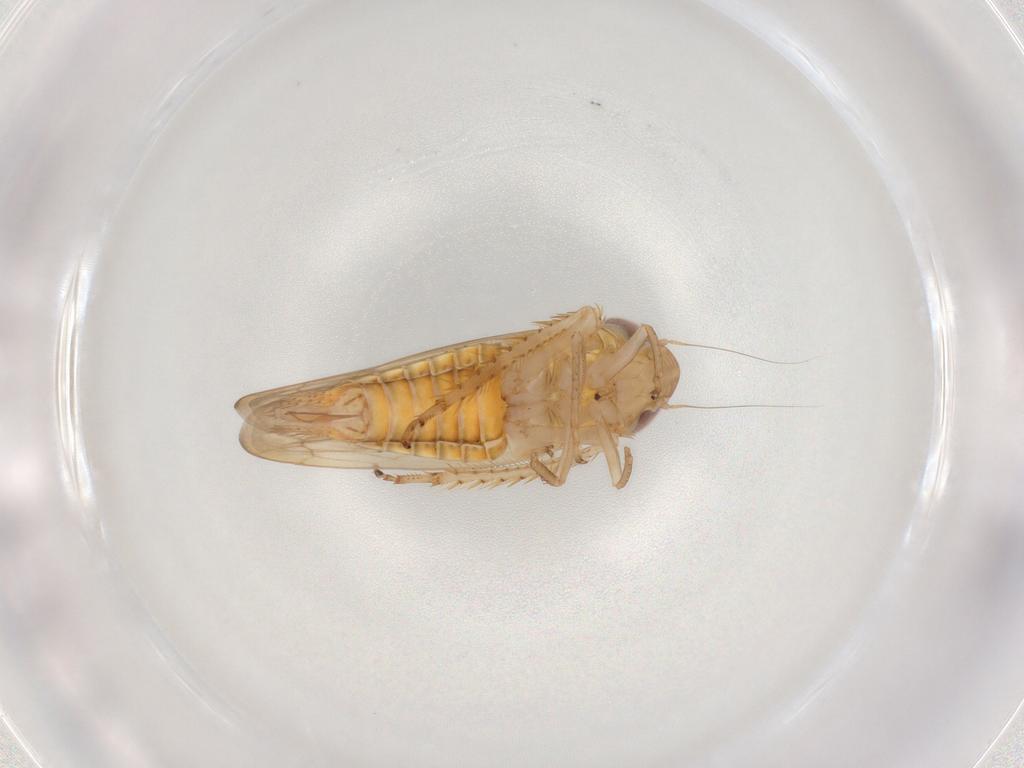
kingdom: Animalia
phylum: Arthropoda
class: Insecta
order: Hemiptera
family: Cicadellidae
